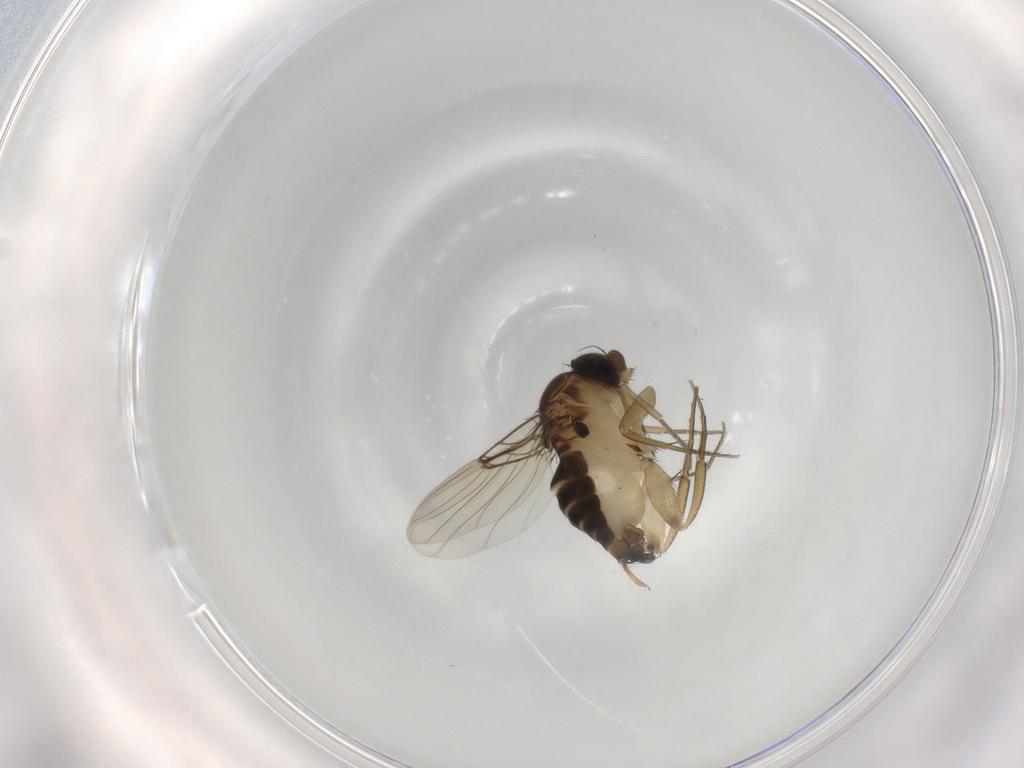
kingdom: Animalia
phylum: Arthropoda
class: Insecta
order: Diptera
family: Phoridae
